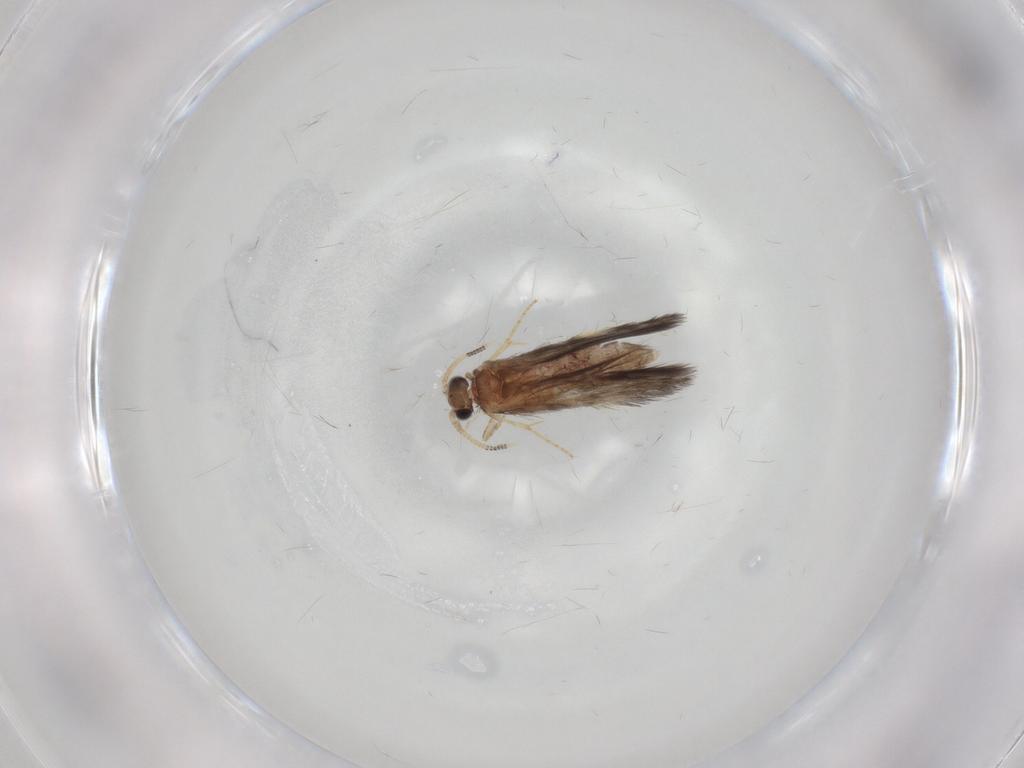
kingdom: Animalia
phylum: Arthropoda
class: Insecta
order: Trichoptera
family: Hydroptilidae
